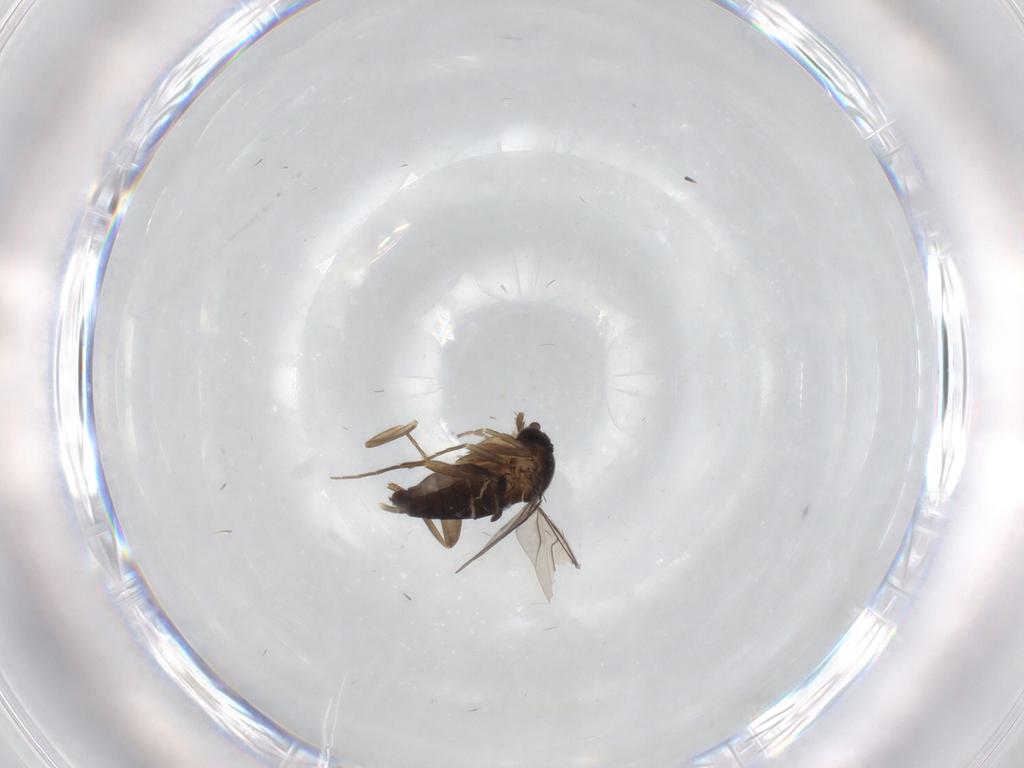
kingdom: Animalia
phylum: Arthropoda
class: Insecta
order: Diptera
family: Phoridae
